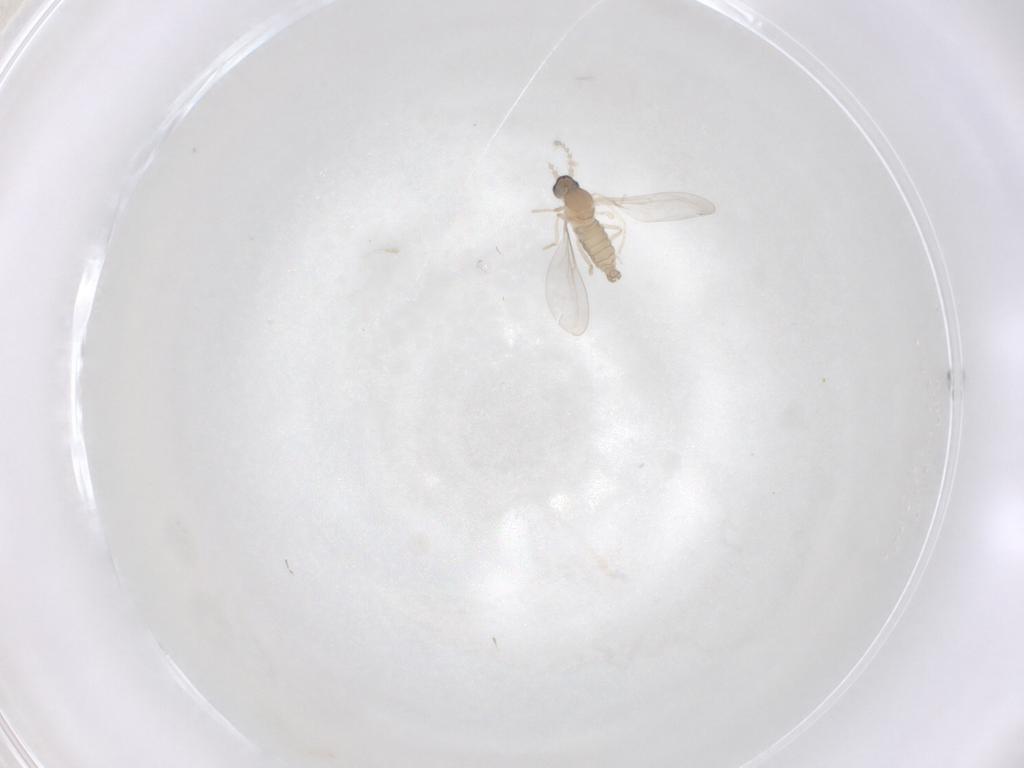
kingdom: Animalia
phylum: Arthropoda
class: Insecta
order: Diptera
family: Cecidomyiidae
